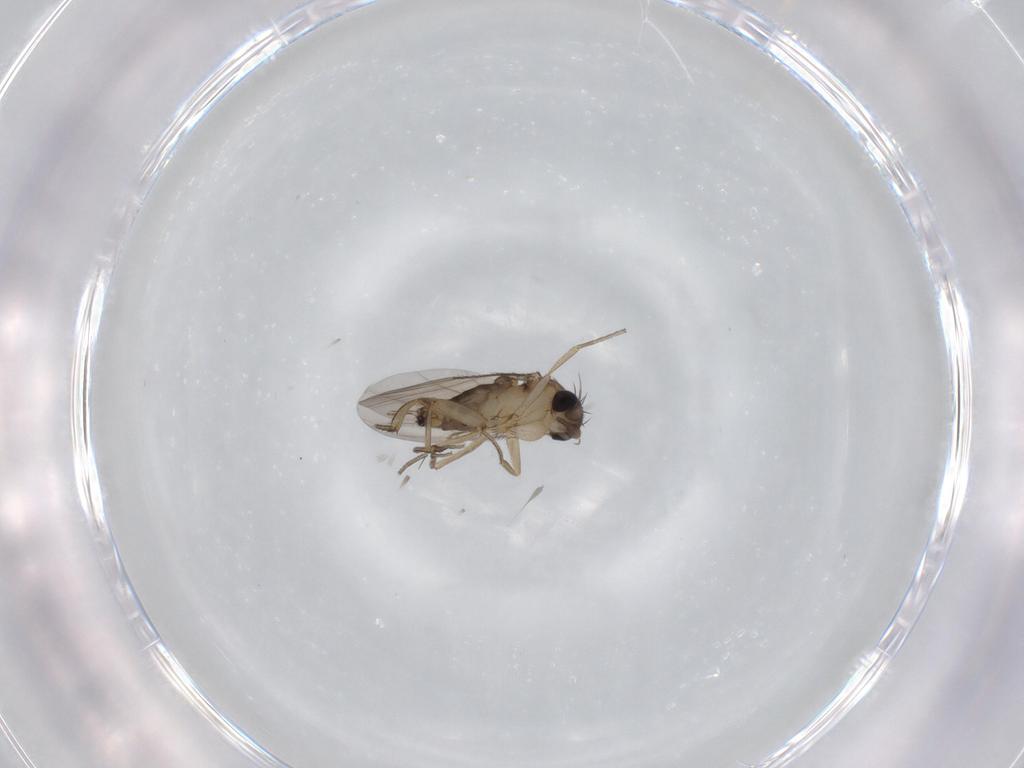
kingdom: Animalia
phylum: Arthropoda
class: Insecta
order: Diptera
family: Phoridae
